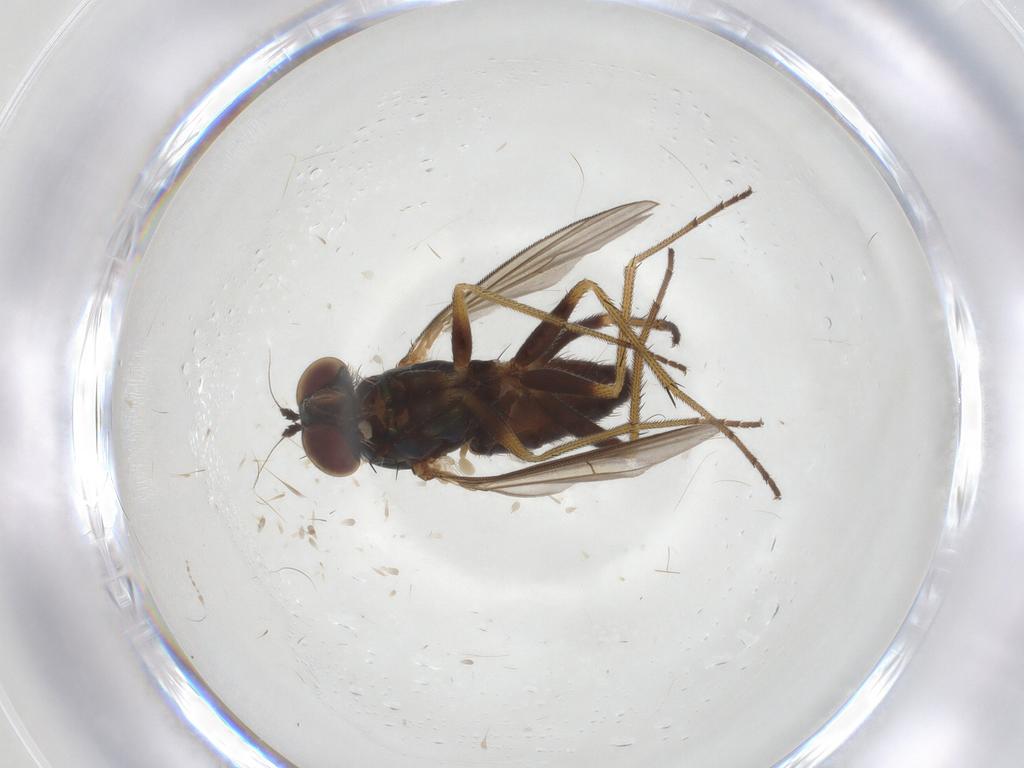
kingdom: Animalia
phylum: Arthropoda
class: Insecta
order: Diptera
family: Dolichopodidae
